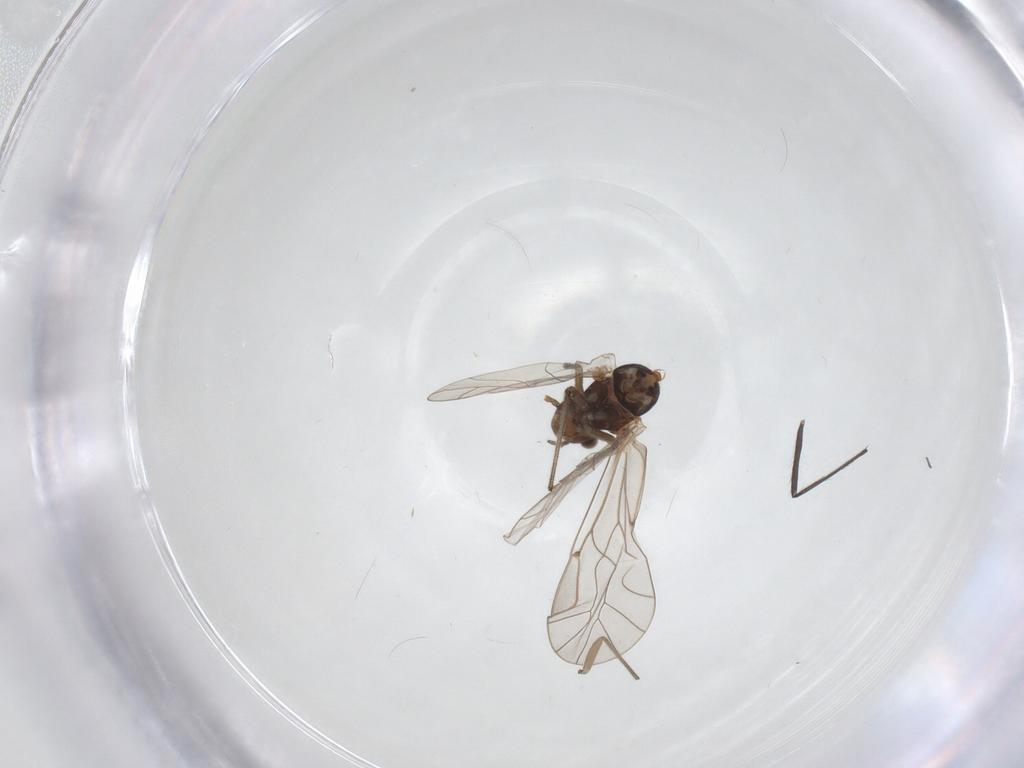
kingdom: Animalia
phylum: Arthropoda
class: Insecta
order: Psocodea
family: Lachesillidae
